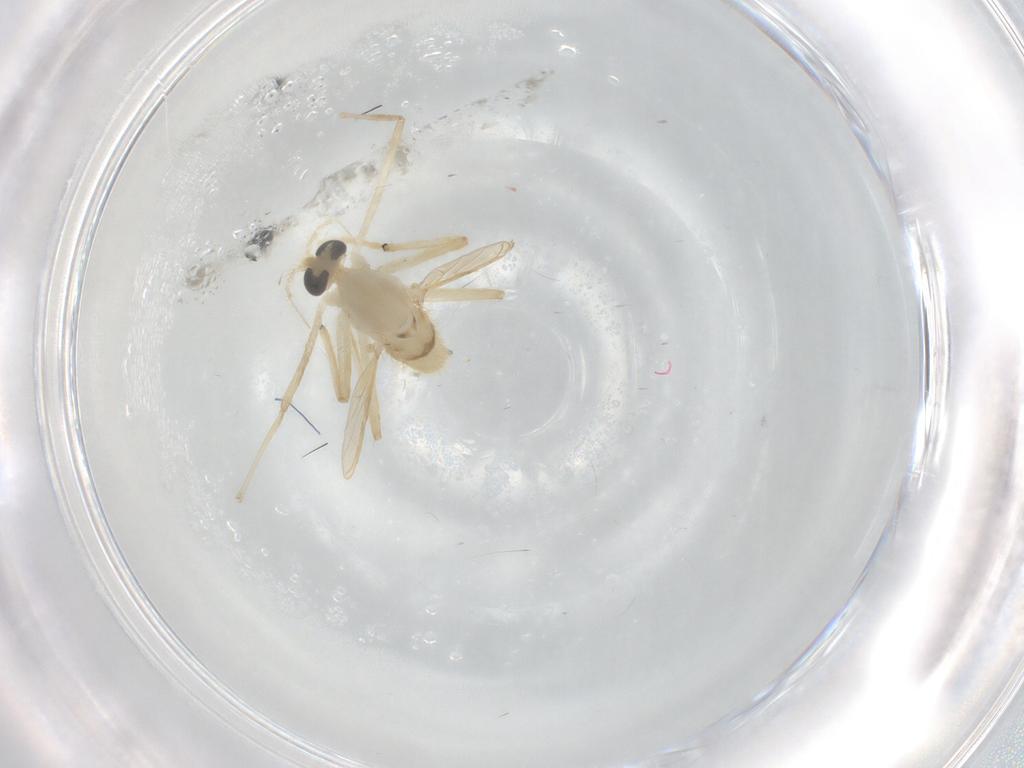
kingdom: Animalia
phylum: Arthropoda
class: Insecta
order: Diptera
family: Chironomidae
